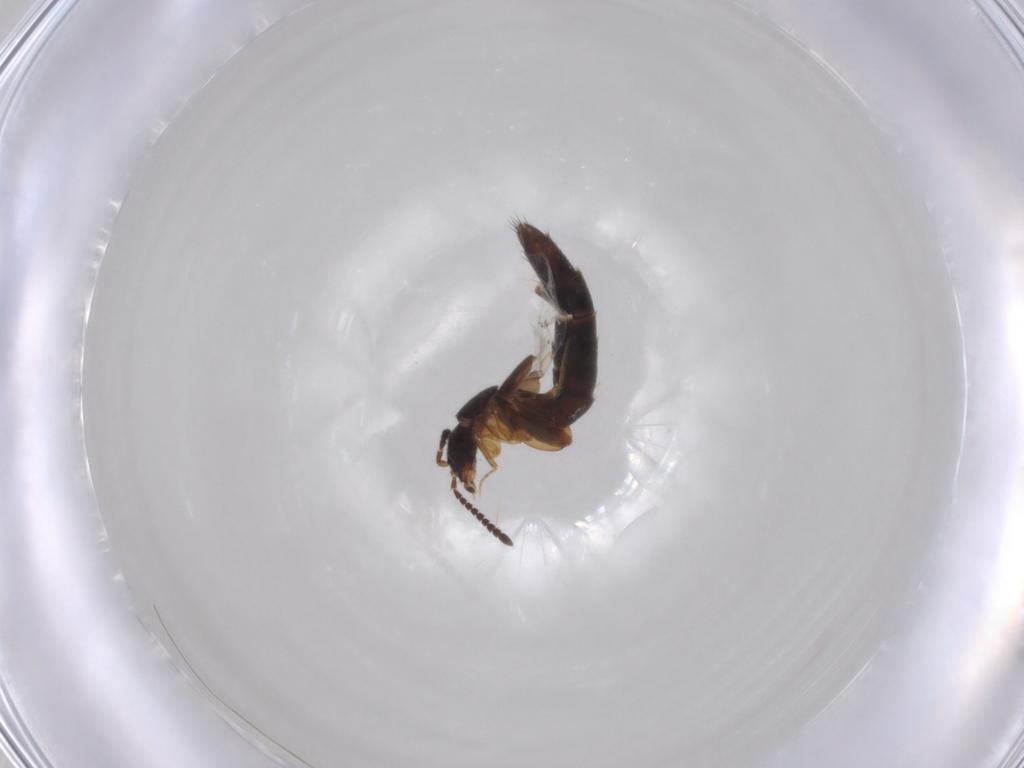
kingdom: Animalia
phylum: Arthropoda
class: Insecta
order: Coleoptera
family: Staphylinidae
